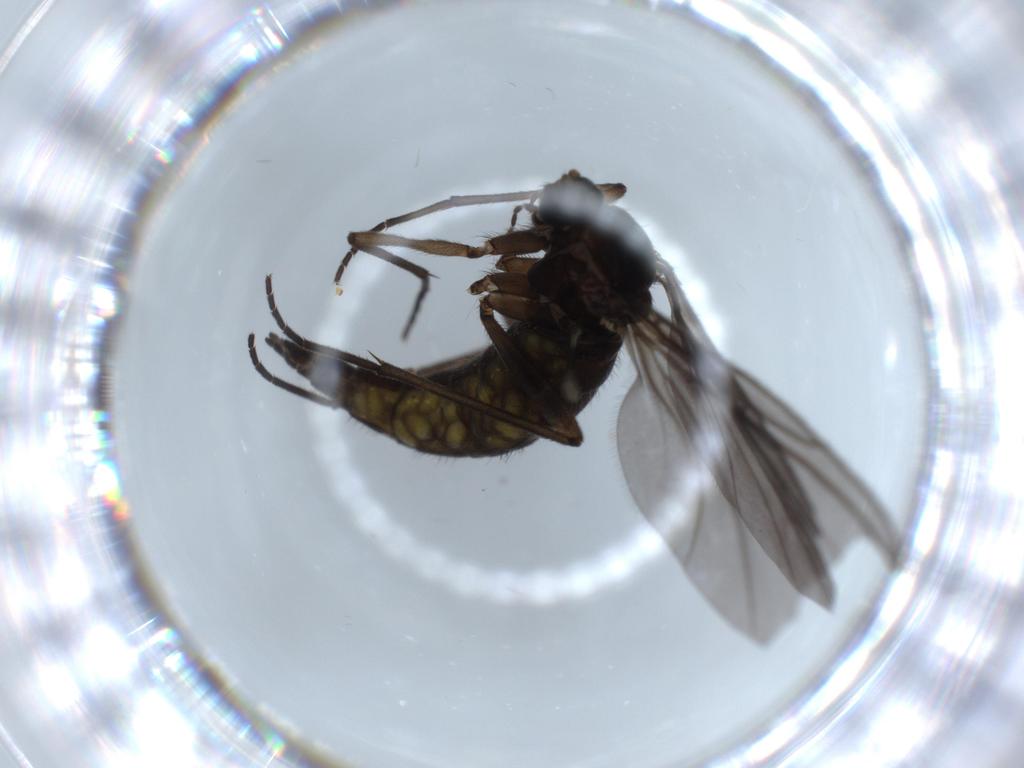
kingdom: Animalia
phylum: Arthropoda
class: Insecta
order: Diptera
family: Sciaridae
